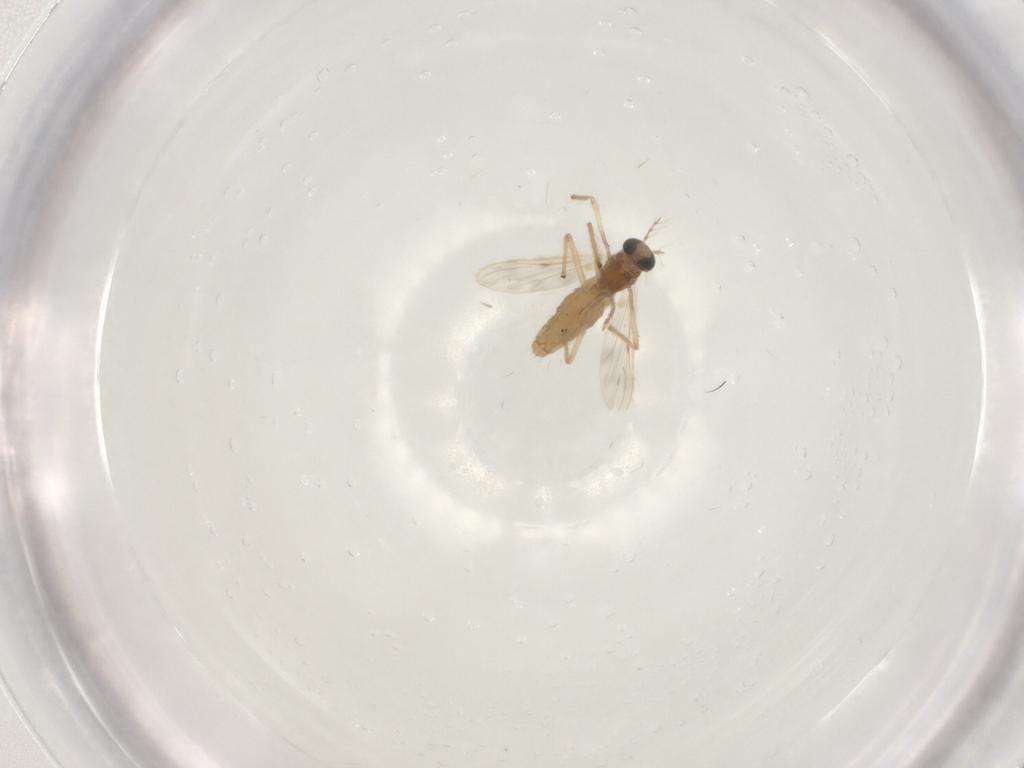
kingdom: Animalia
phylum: Arthropoda
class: Insecta
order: Diptera
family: Chironomidae
